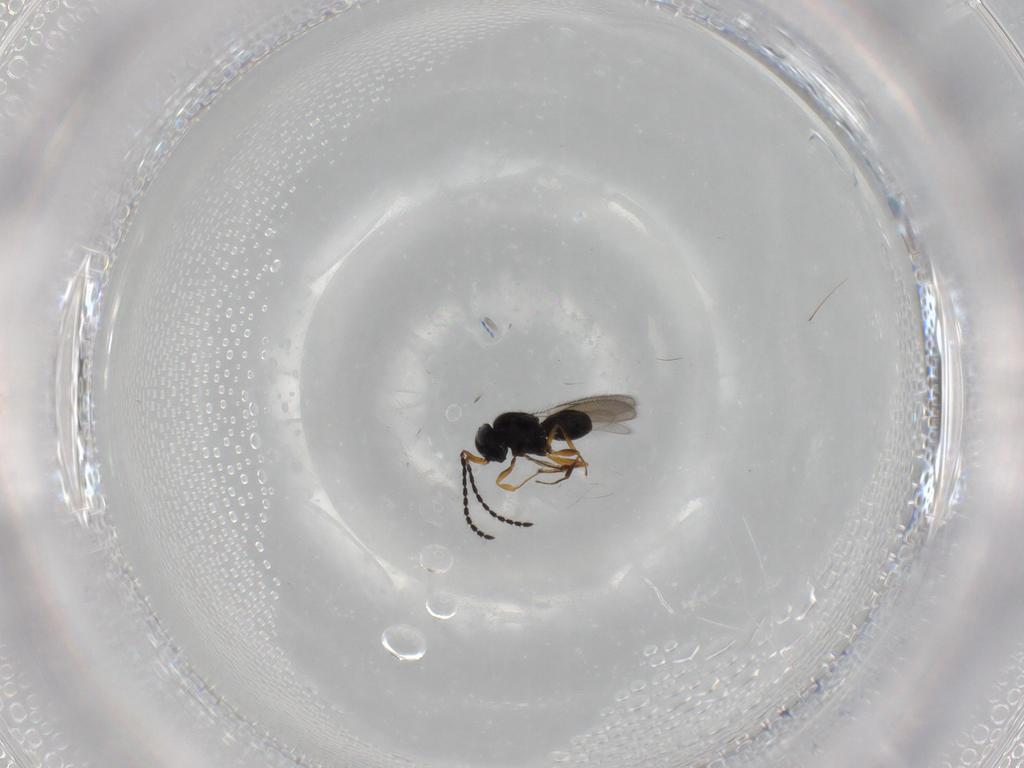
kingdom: Animalia
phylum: Arthropoda
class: Insecta
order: Hymenoptera
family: Scelionidae
